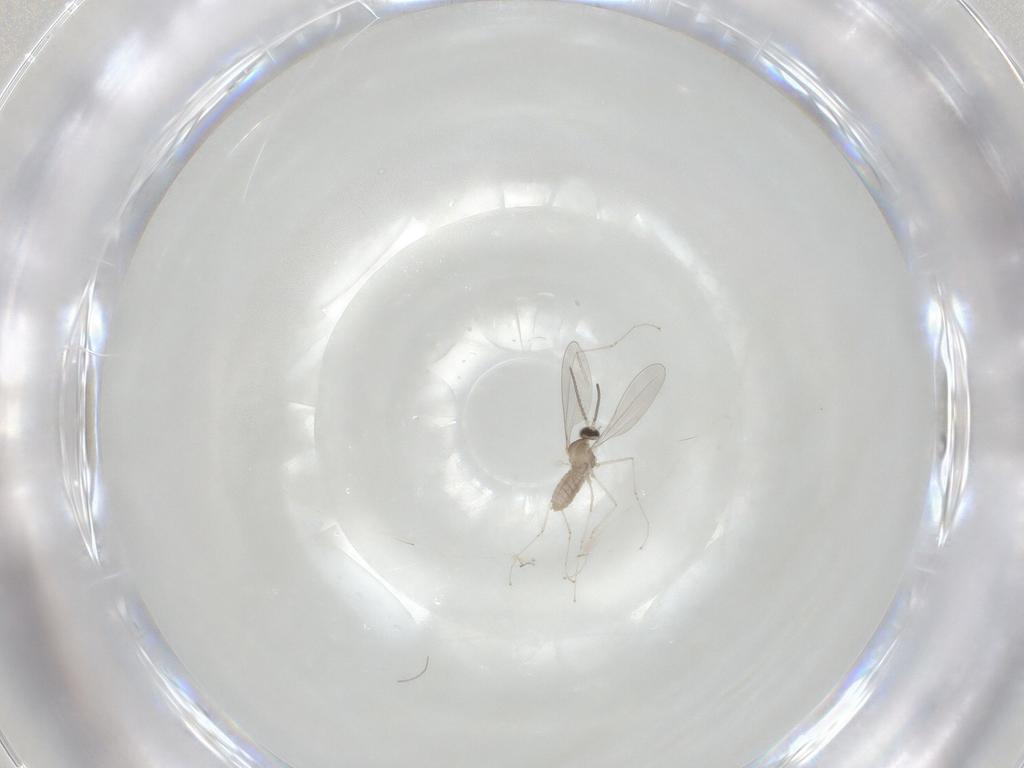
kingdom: Animalia
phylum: Arthropoda
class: Insecta
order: Diptera
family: Cecidomyiidae
